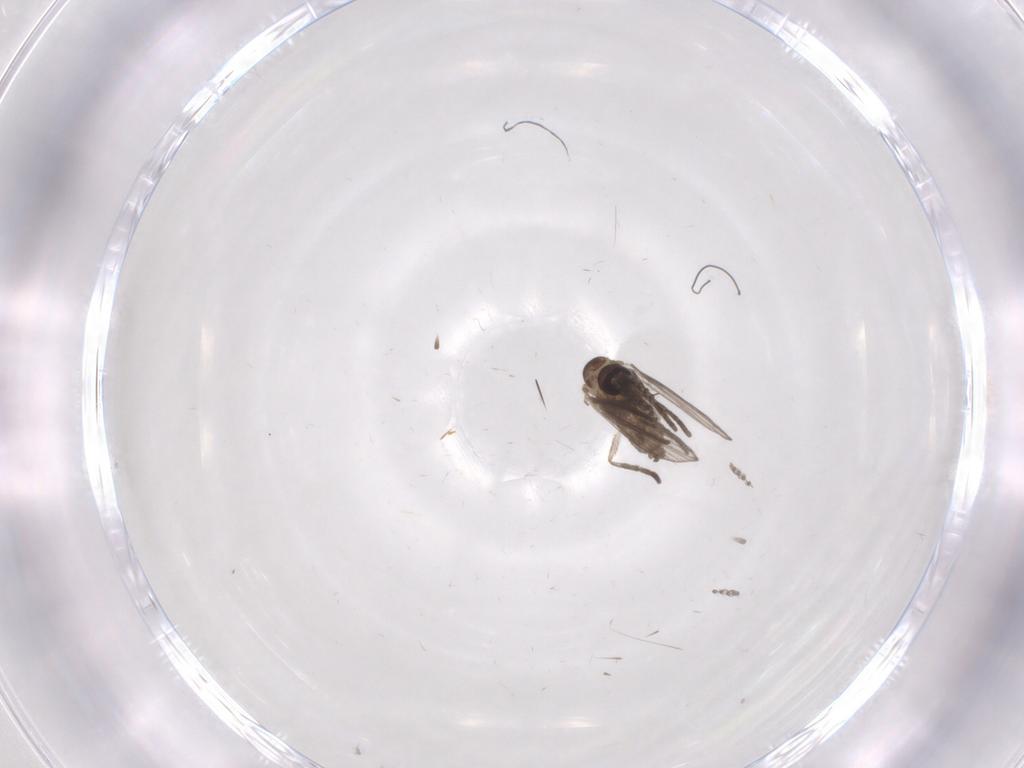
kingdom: Animalia
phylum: Arthropoda
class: Insecta
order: Diptera
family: Psychodidae
